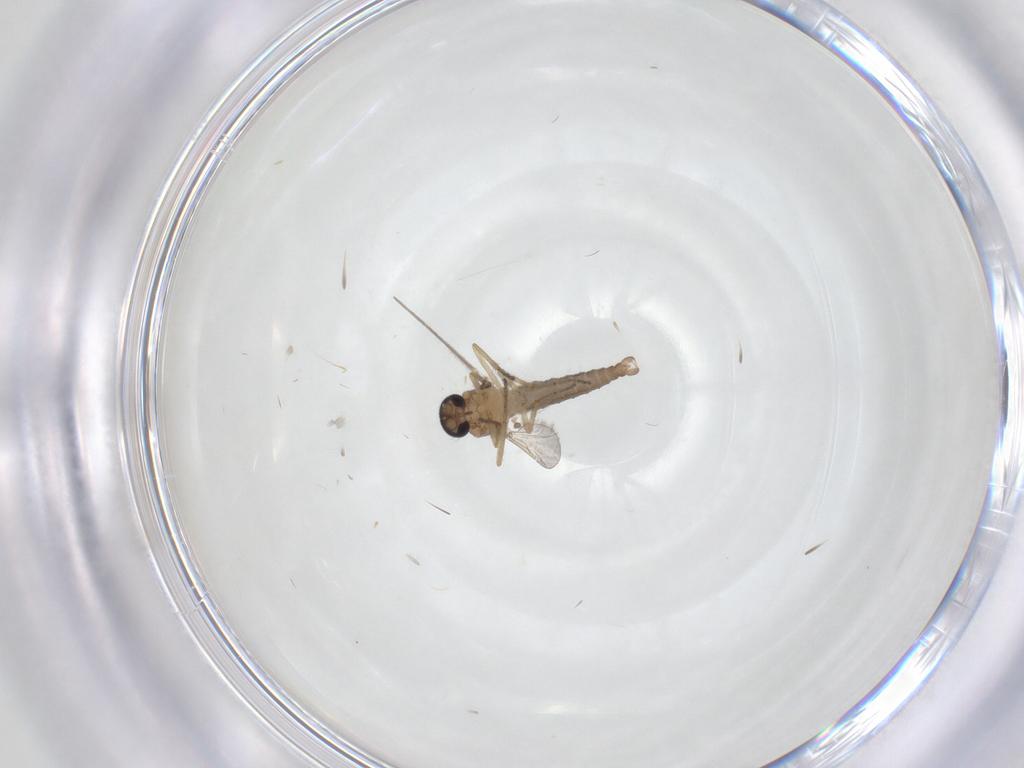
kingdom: Animalia
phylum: Arthropoda
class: Insecta
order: Diptera
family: Ceratopogonidae
